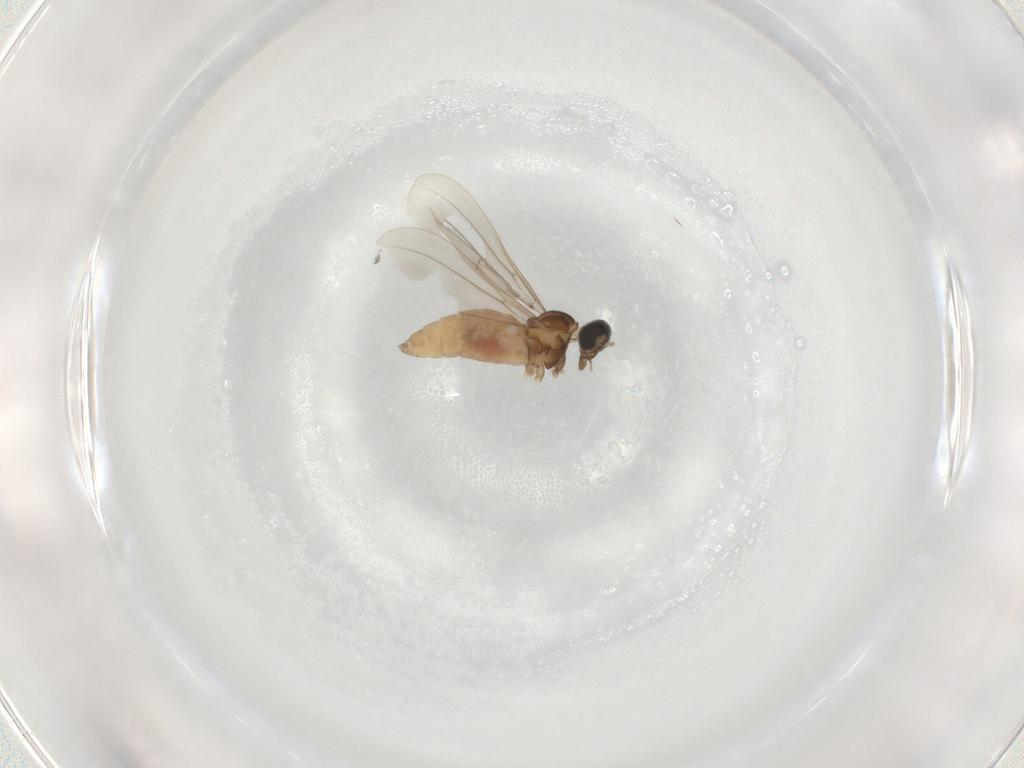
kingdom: Animalia
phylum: Arthropoda
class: Insecta
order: Diptera
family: Cecidomyiidae
